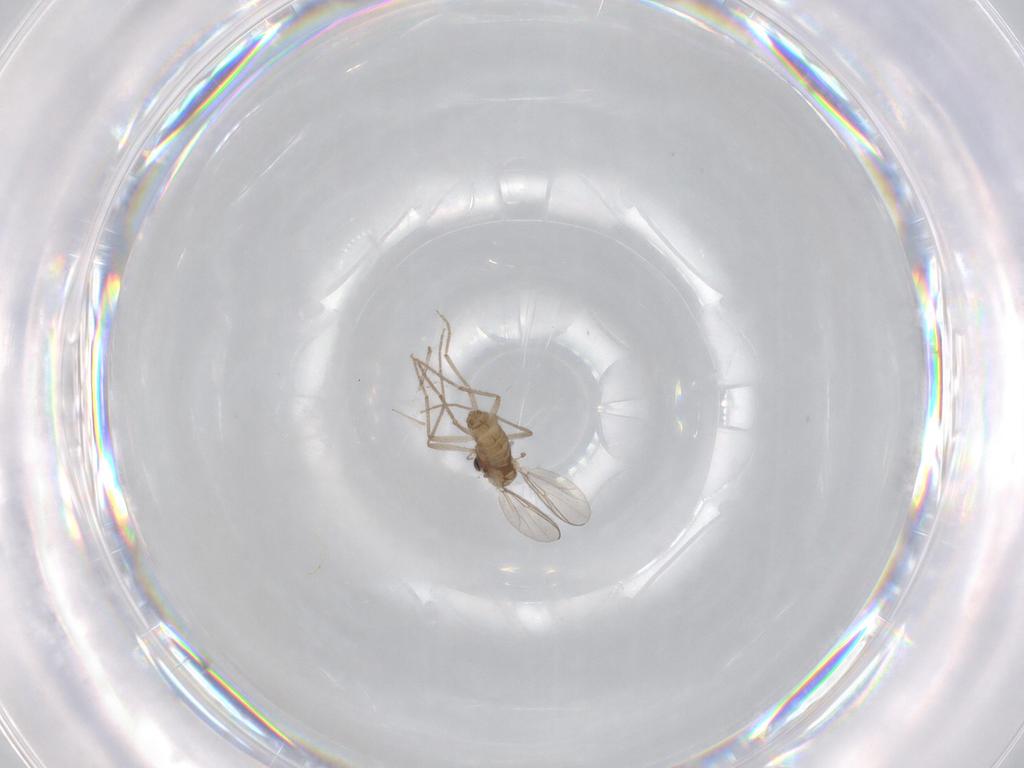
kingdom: Animalia
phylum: Arthropoda
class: Insecta
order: Diptera
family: Chironomidae
